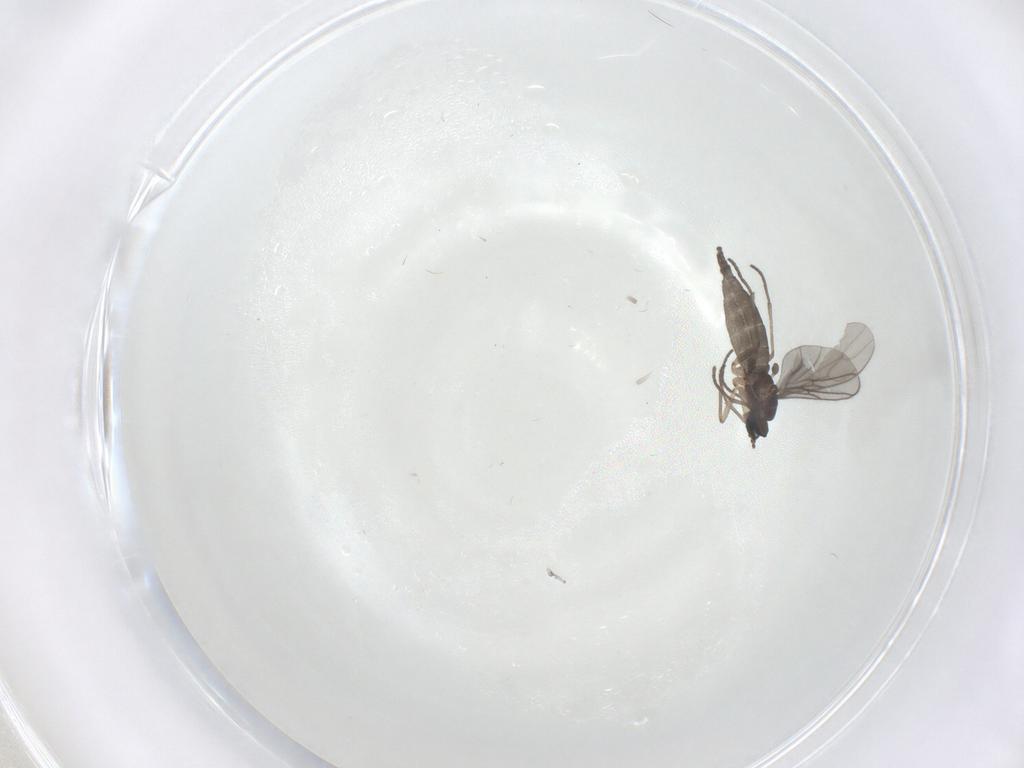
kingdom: Animalia
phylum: Arthropoda
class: Insecta
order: Diptera
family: Sciaridae
